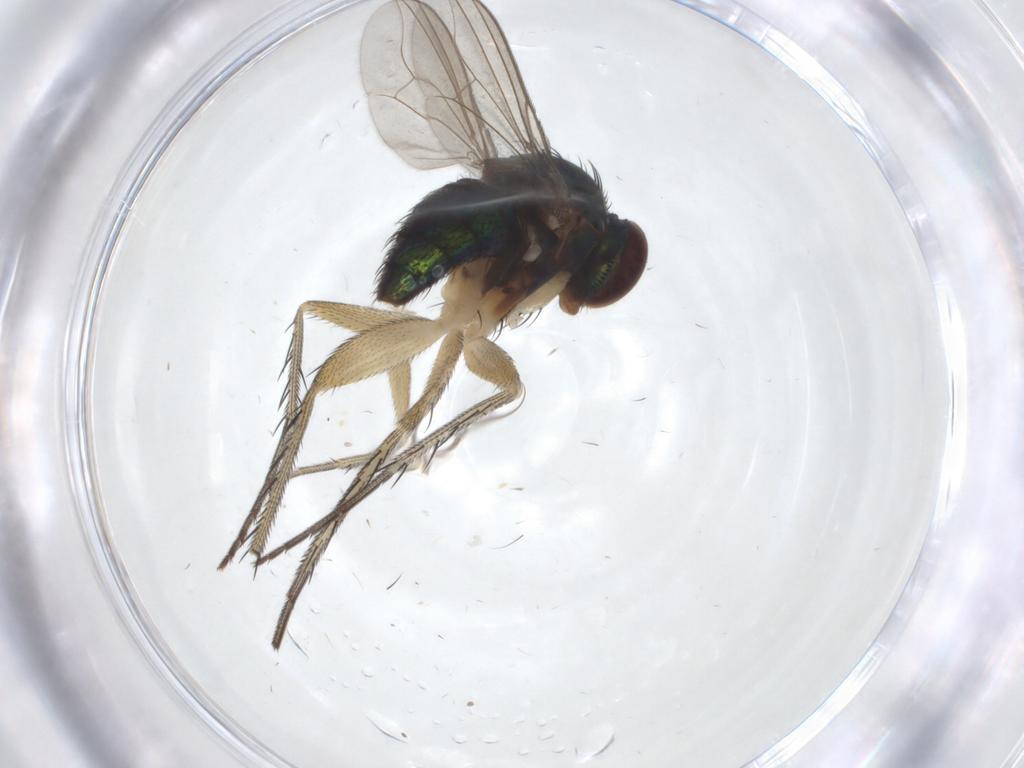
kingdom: Animalia
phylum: Arthropoda
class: Insecta
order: Diptera
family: Dolichopodidae
